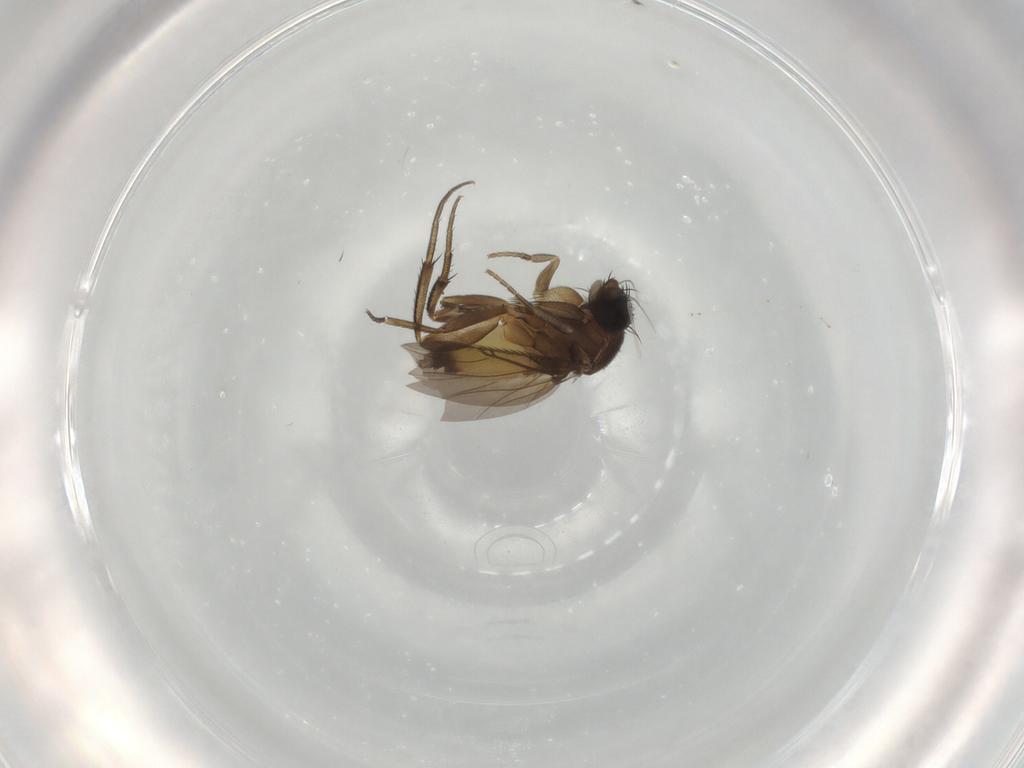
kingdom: Animalia
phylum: Arthropoda
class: Insecta
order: Diptera
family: Phoridae
